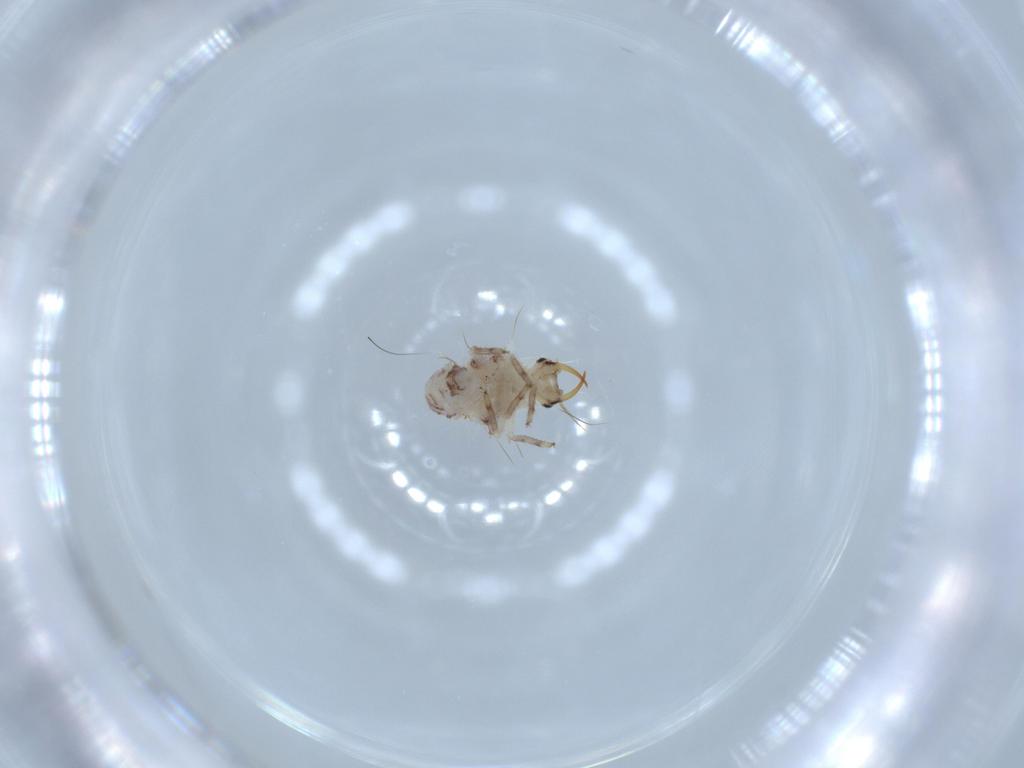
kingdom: Animalia
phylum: Arthropoda
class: Insecta
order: Neuroptera
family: Chrysopidae
